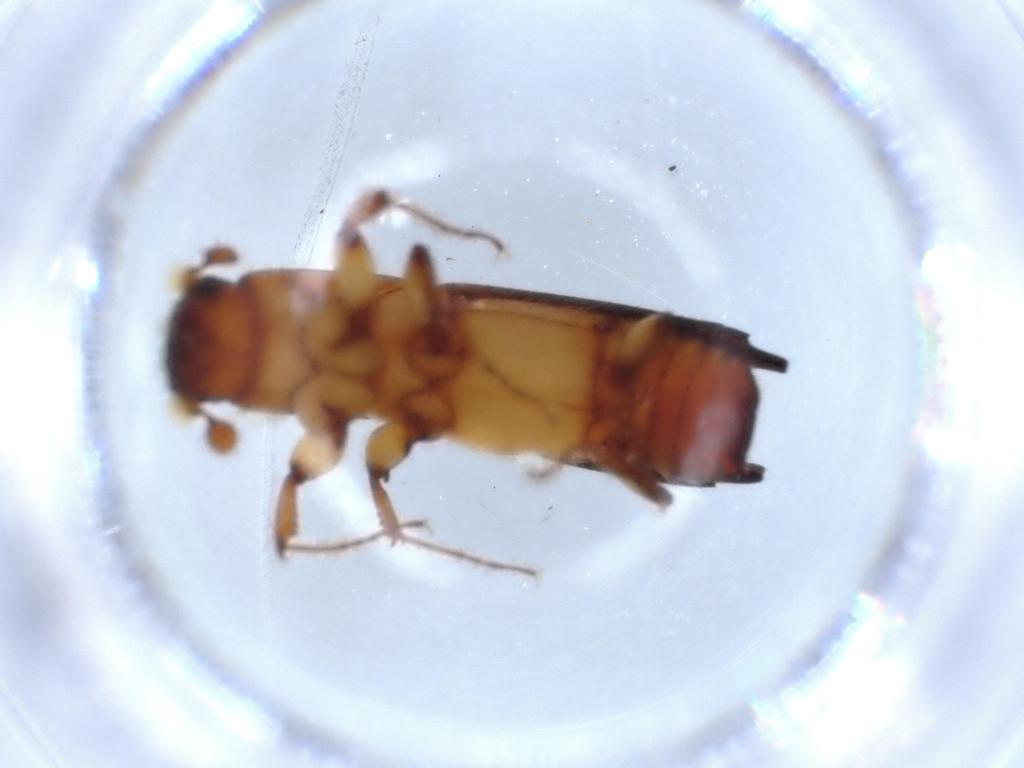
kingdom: Animalia
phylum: Arthropoda
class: Insecta
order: Coleoptera
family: Curculionidae
